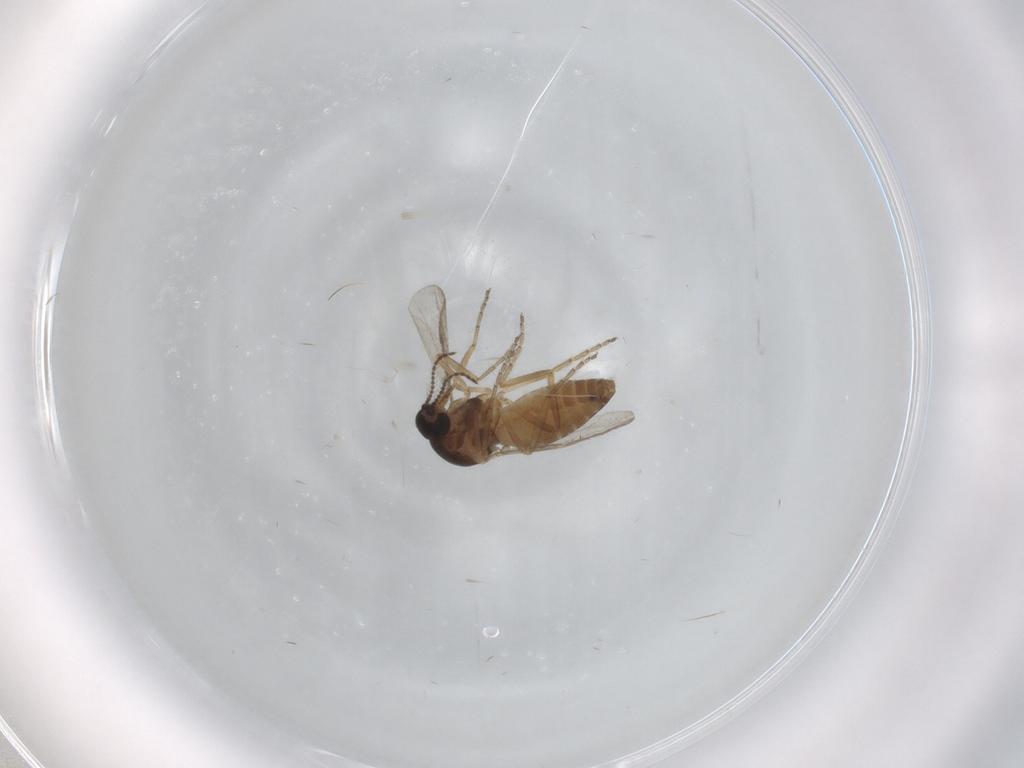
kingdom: Animalia
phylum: Arthropoda
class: Insecta
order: Diptera
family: Ceratopogonidae
